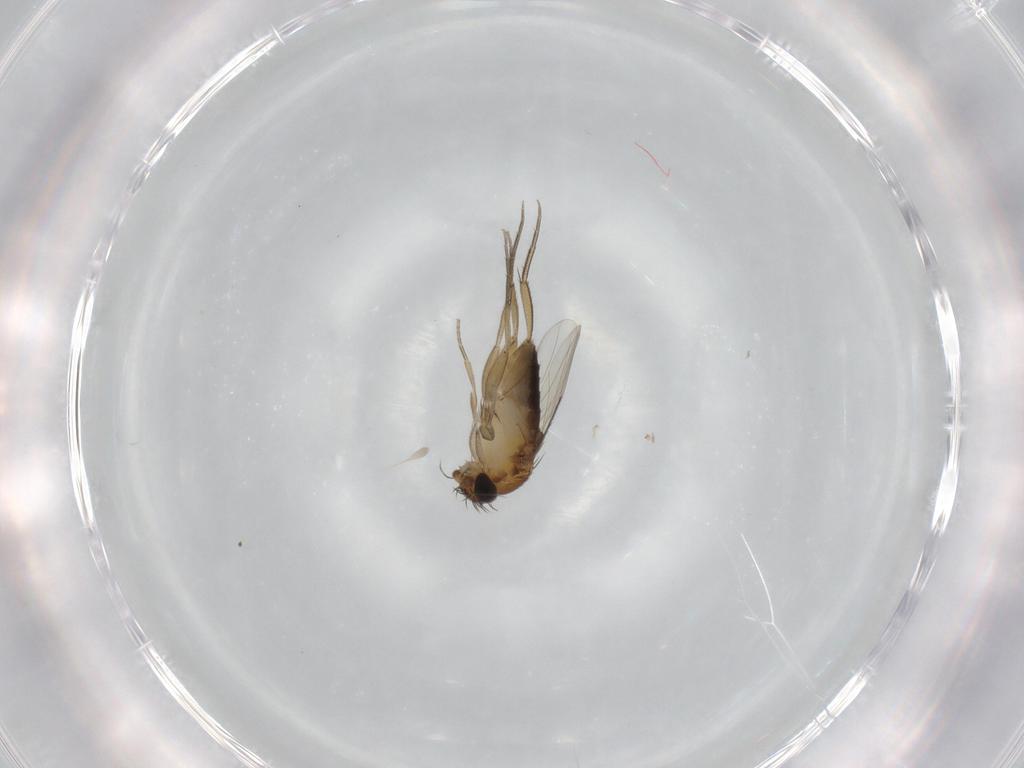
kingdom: Animalia
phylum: Arthropoda
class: Insecta
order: Diptera
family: Phoridae
